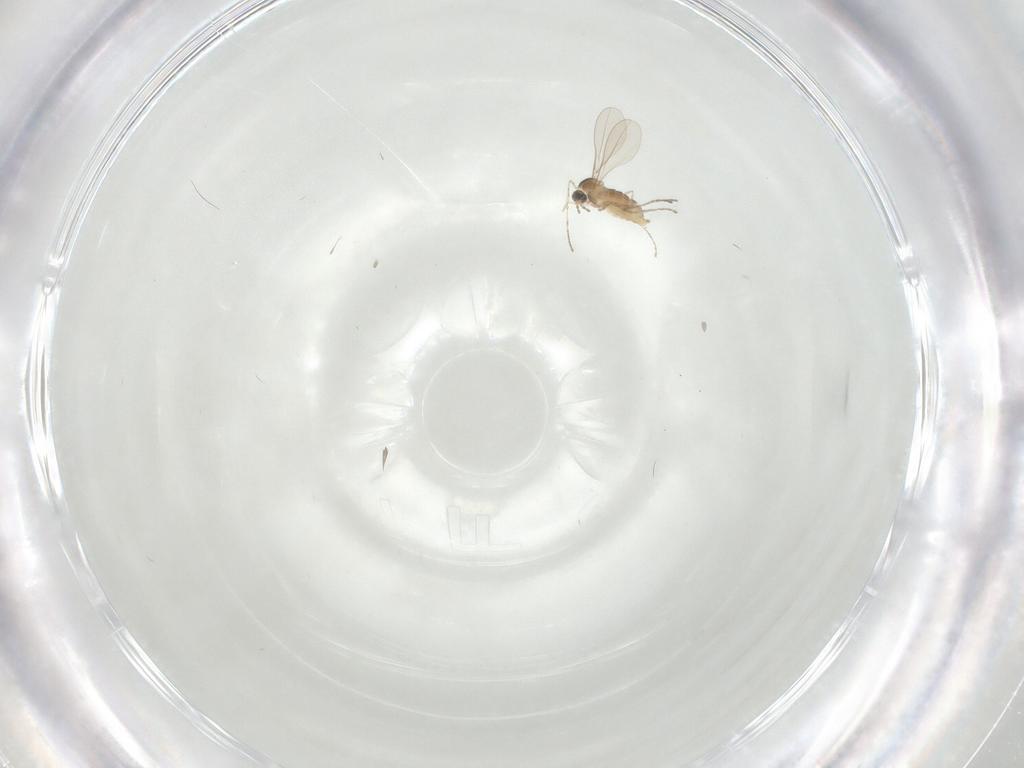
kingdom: Animalia
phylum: Arthropoda
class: Insecta
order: Diptera
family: Cecidomyiidae
